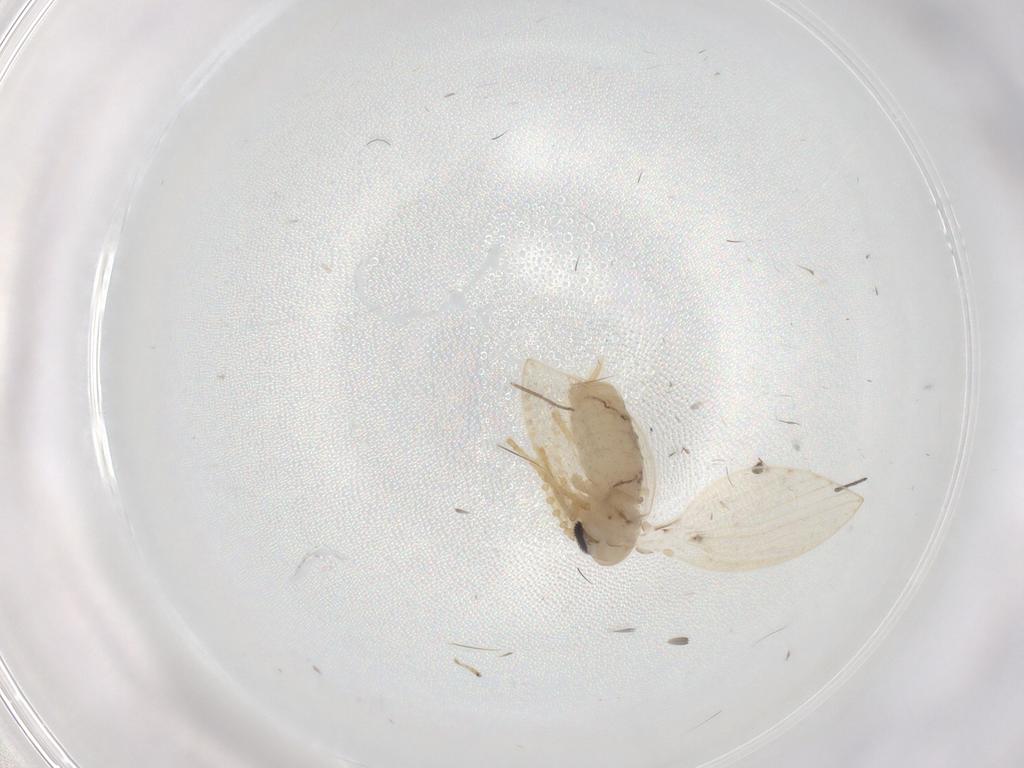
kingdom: Animalia
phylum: Arthropoda
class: Insecta
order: Diptera
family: Psychodidae
